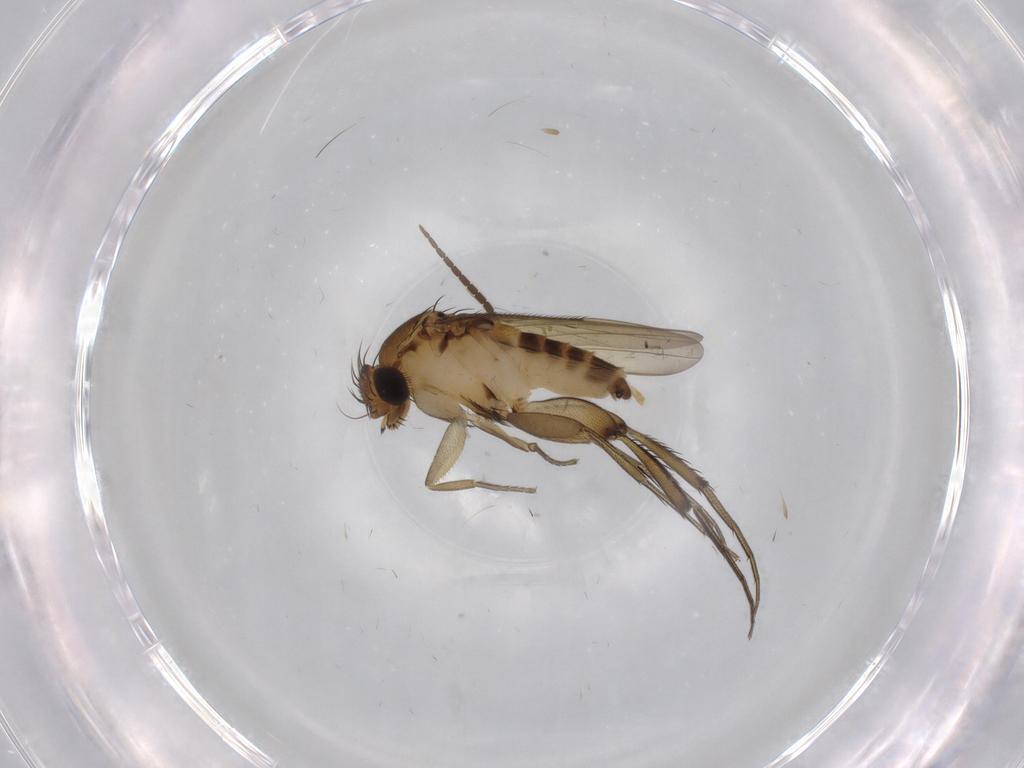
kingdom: Animalia
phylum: Arthropoda
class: Insecta
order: Diptera
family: Phoridae
